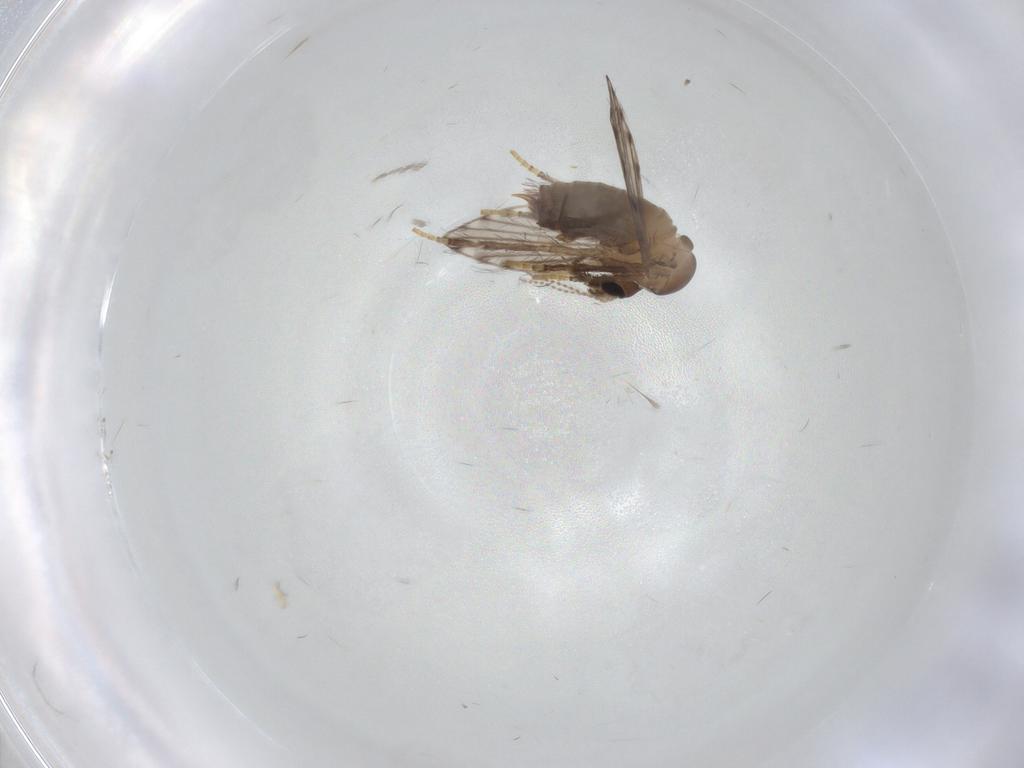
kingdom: Animalia
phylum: Arthropoda
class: Insecta
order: Diptera
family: Psychodidae
